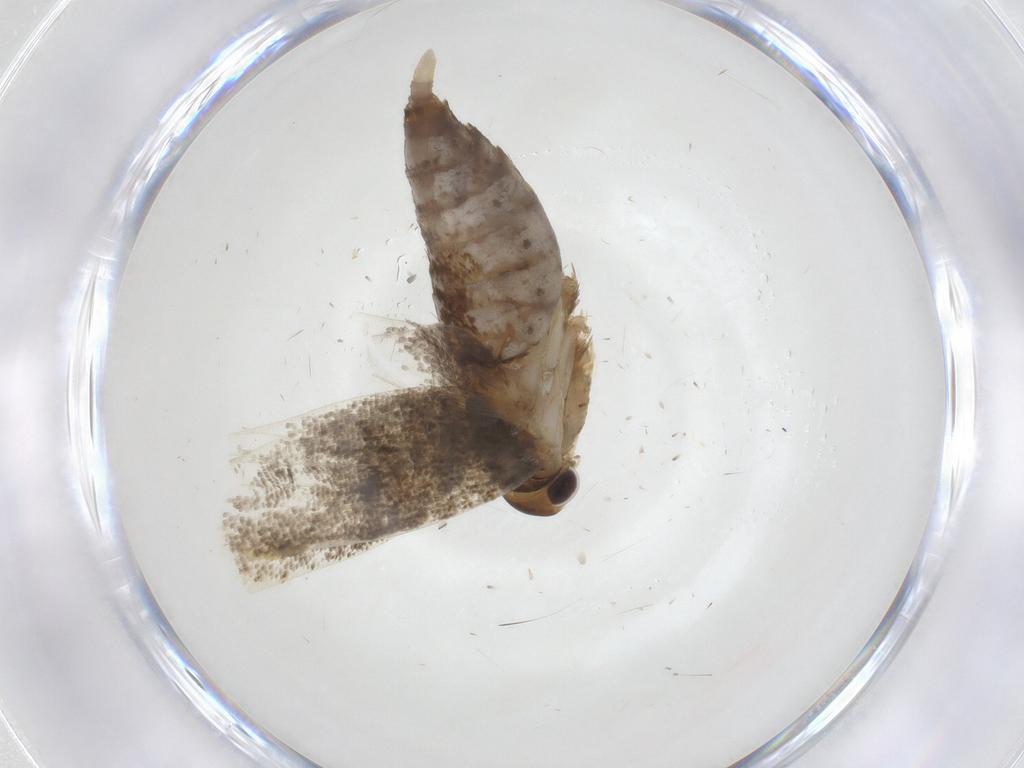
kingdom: Animalia
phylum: Arthropoda
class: Insecta
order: Lepidoptera
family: Lecithoceridae
